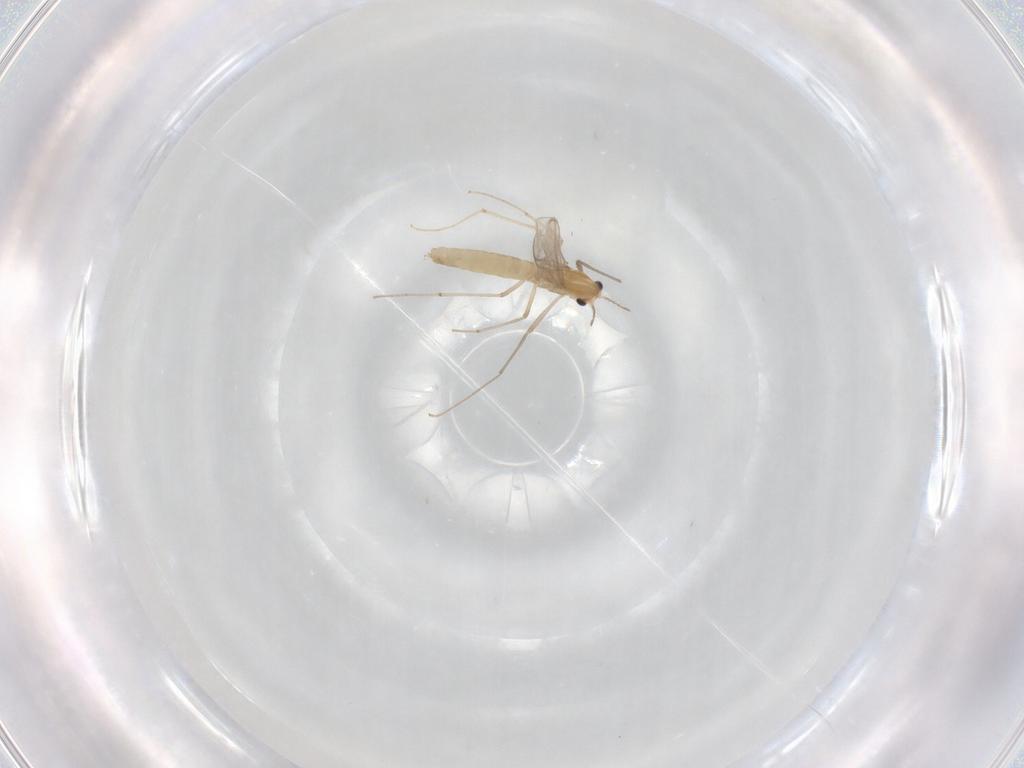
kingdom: Animalia
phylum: Arthropoda
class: Insecta
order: Diptera
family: Chironomidae
